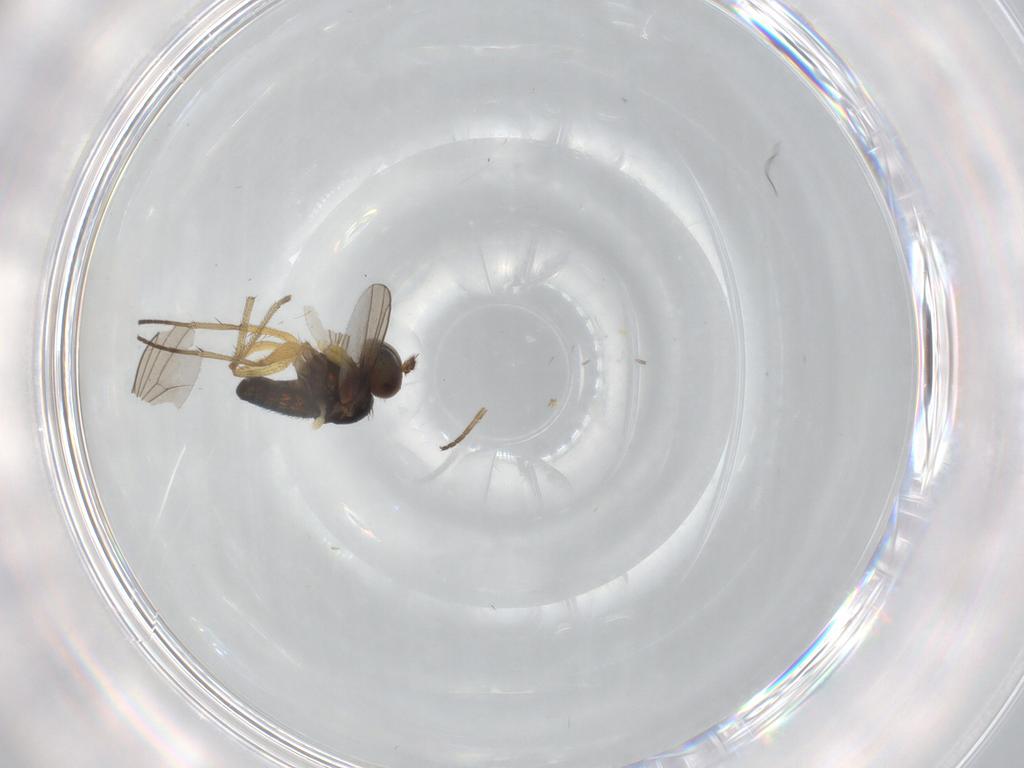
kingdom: Animalia
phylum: Arthropoda
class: Insecta
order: Diptera
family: Dolichopodidae
